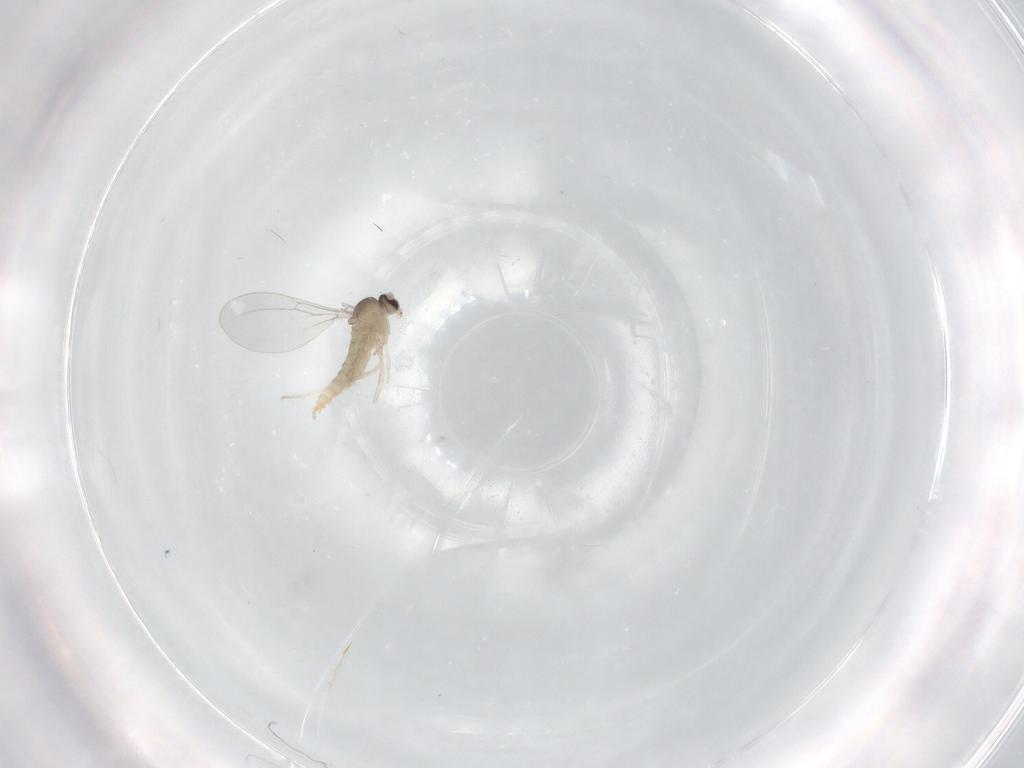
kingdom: Animalia
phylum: Arthropoda
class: Insecta
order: Diptera
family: Cecidomyiidae
